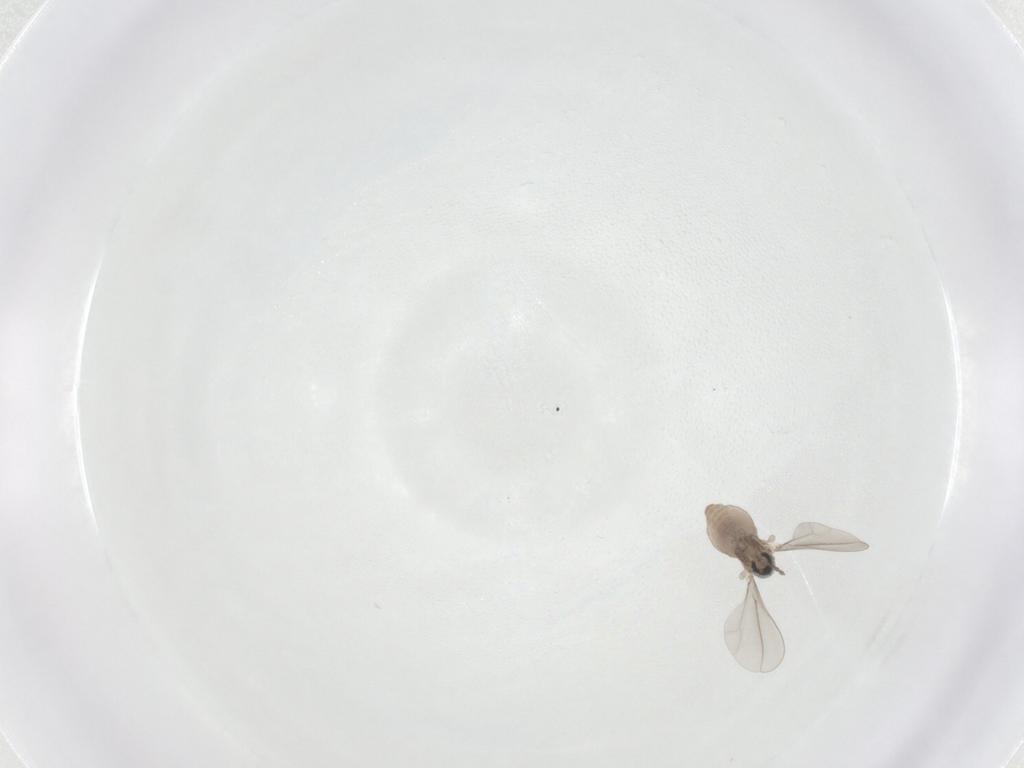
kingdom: Animalia
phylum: Arthropoda
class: Insecta
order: Diptera
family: Cecidomyiidae
